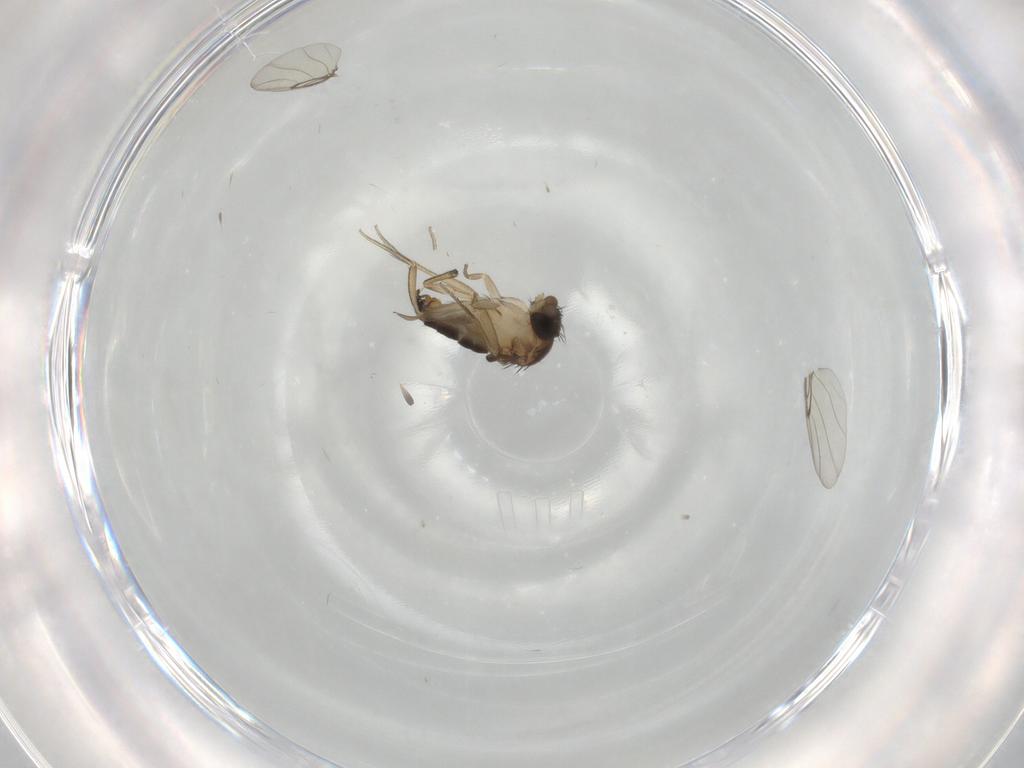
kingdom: Animalia
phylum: Arthropoda
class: Insecta
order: Diptera
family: Phoridae
